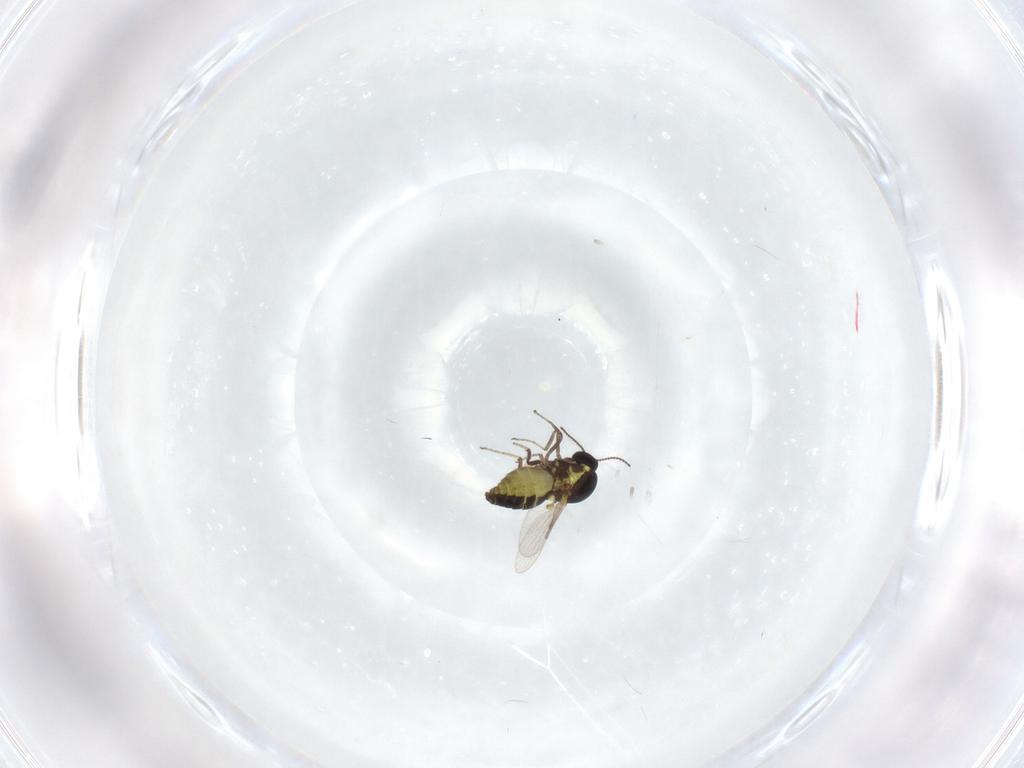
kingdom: Animalia
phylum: Arthropoda
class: Insecta
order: Diptera
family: Ceratopogonidae
